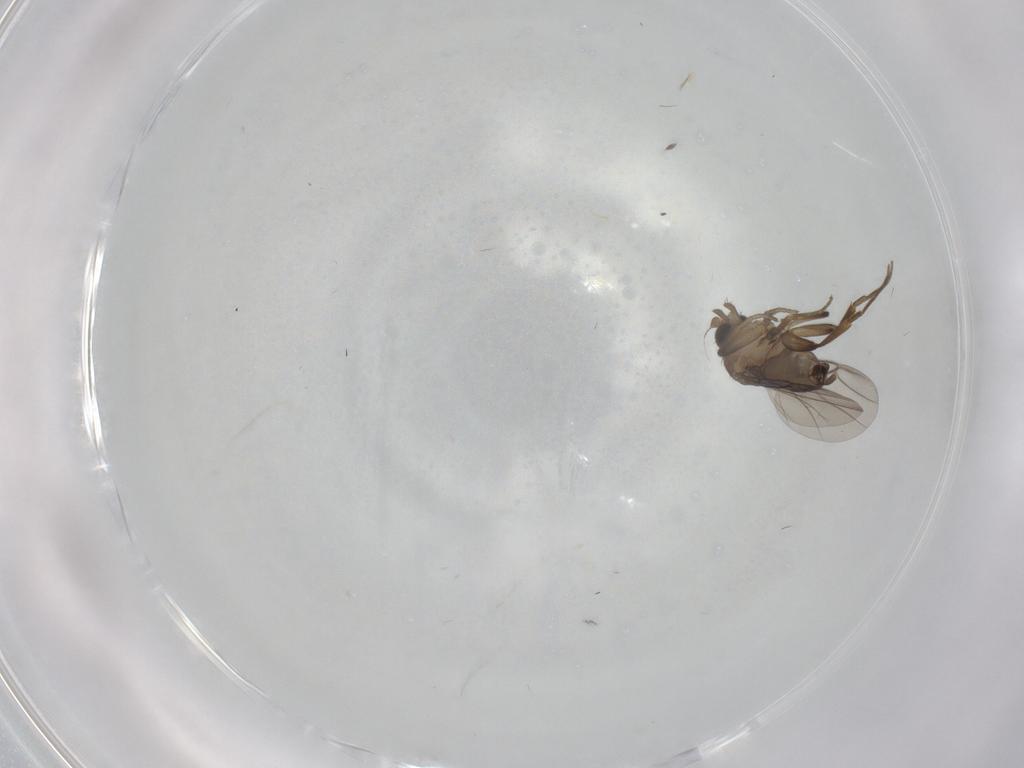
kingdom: Animalia
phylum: Arthropoda
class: Insecta
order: Diptera
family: Phoridae
